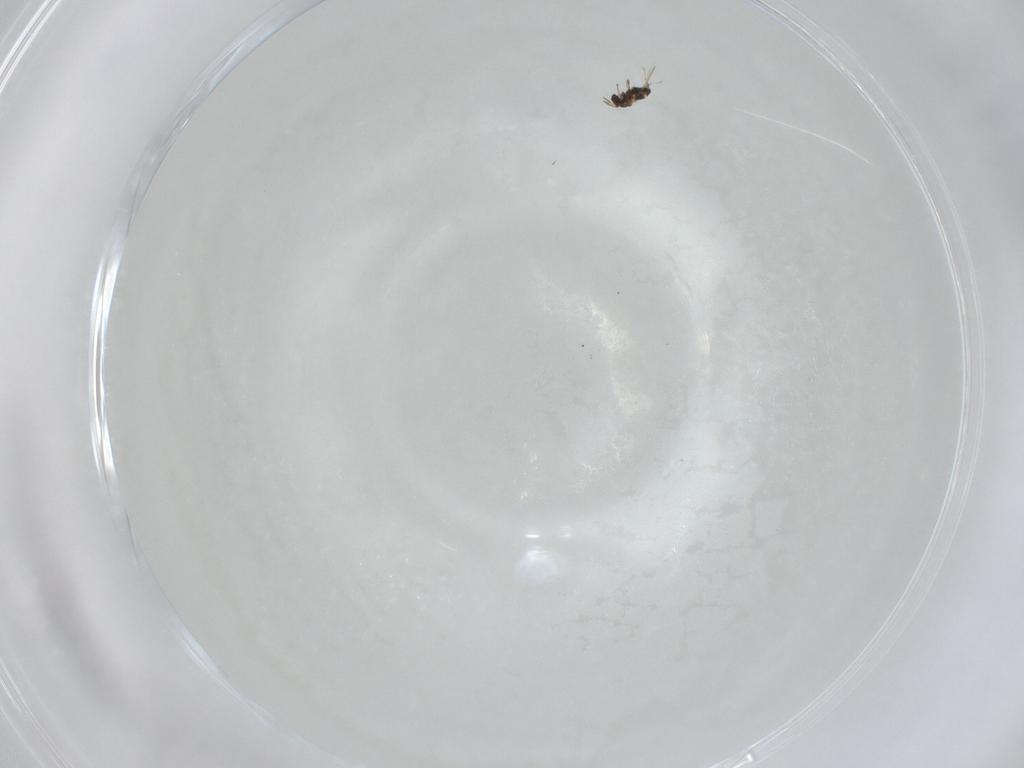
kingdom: Animalia
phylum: Arthropoda
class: Insecta
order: Hymenoptera
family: Trichogrammatidae
